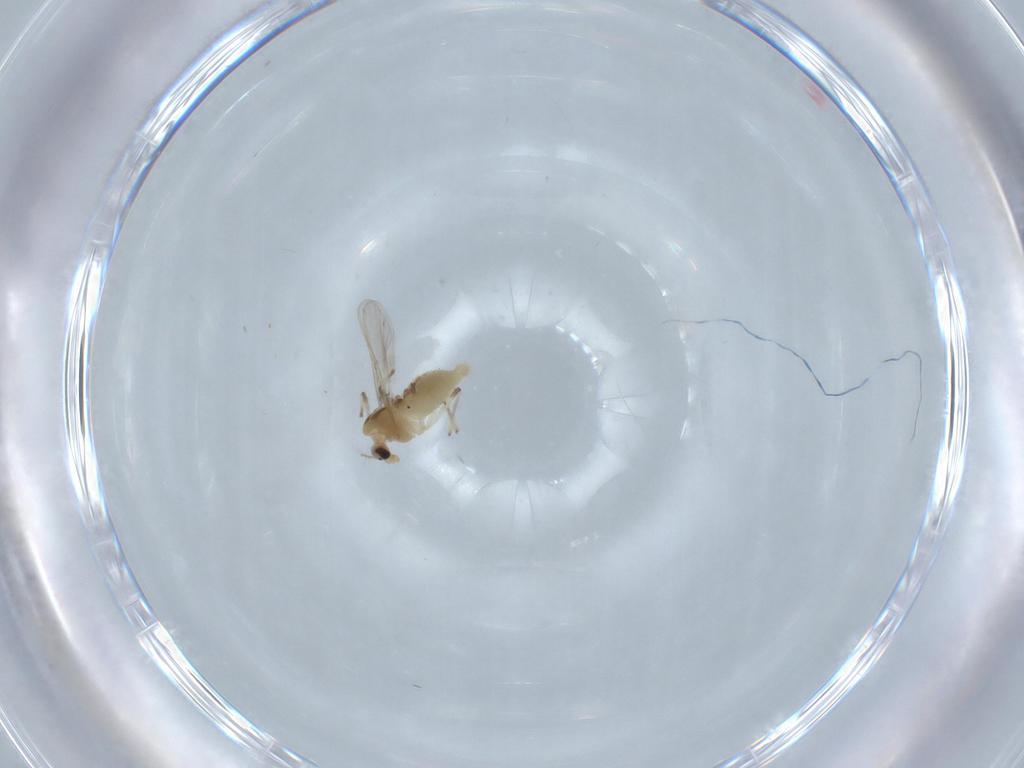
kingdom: Animalia
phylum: Arthropoda
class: Insecta
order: Diptera
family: Chironomidae
